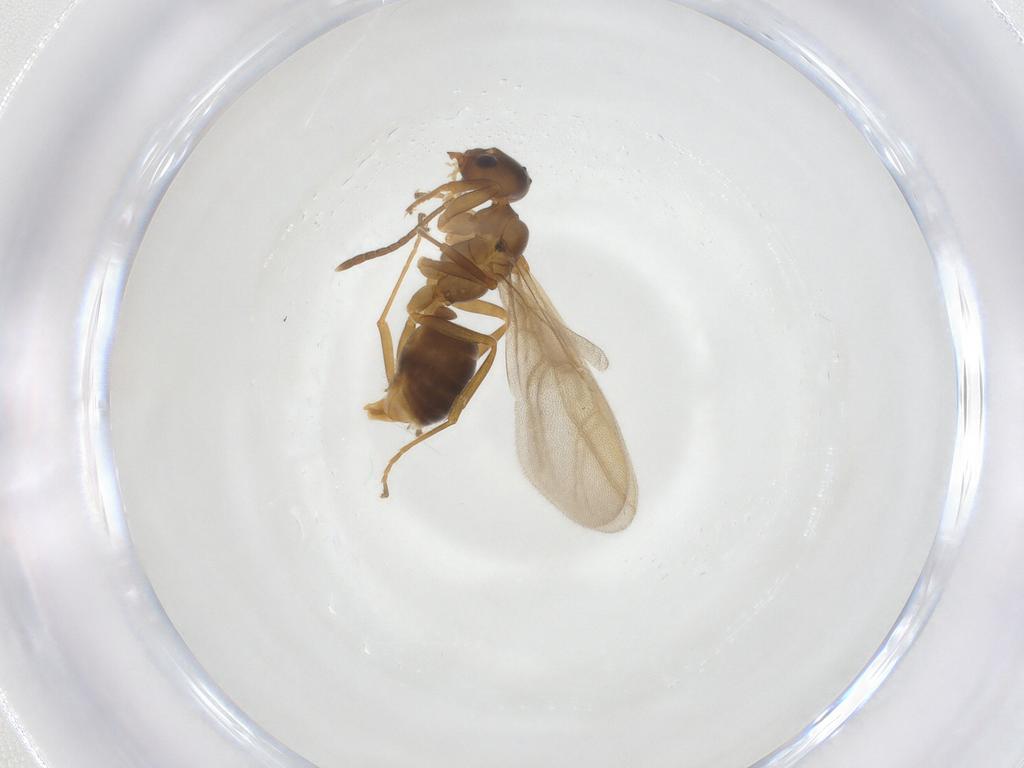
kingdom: Animalia
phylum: Arthropoda
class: Insecta
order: Hymenoptera
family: Formicidae
